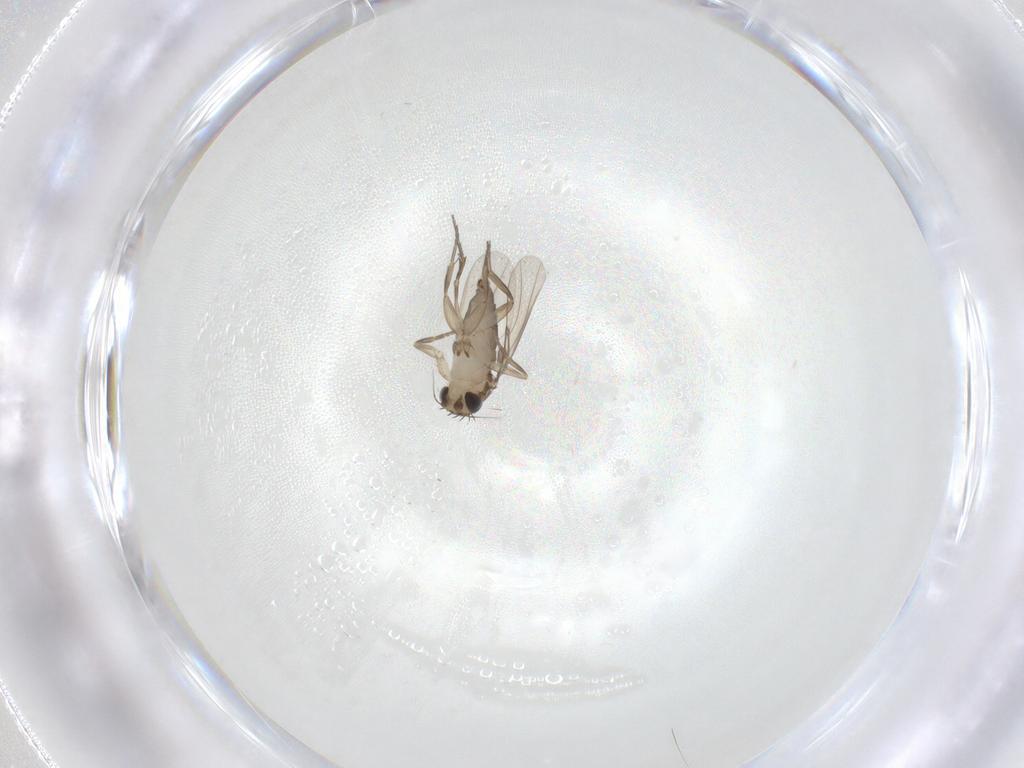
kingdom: Animalia
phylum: Arthropoda
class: Insecta
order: Diptera
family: Phoridae
